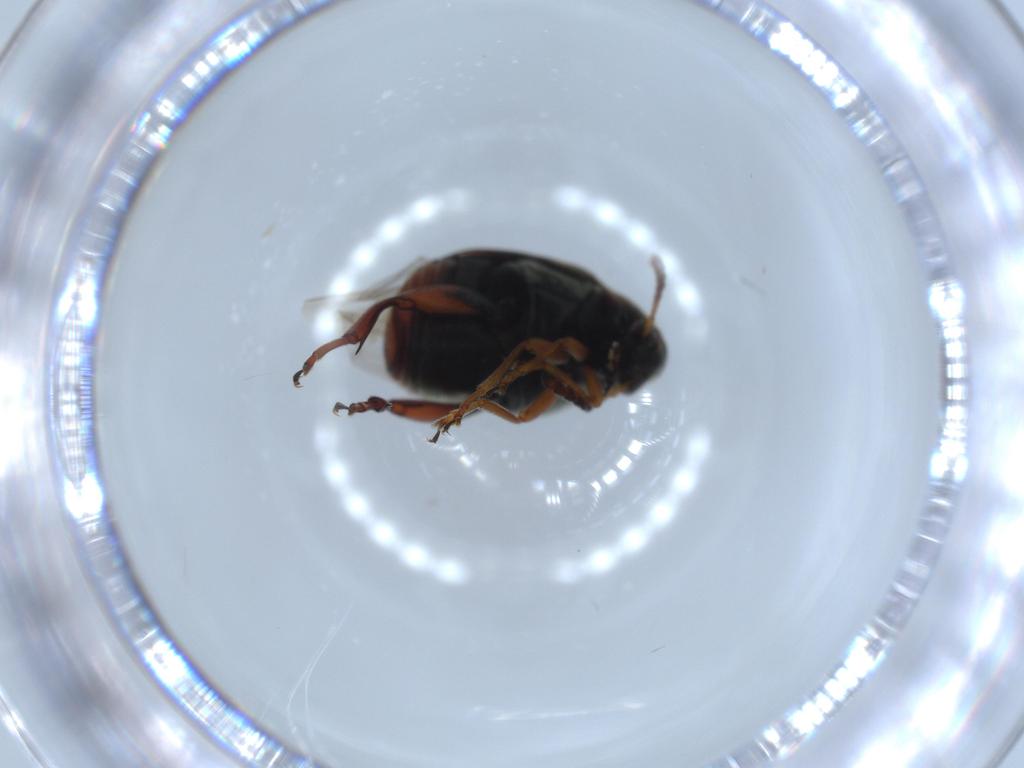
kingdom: Animalia
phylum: Arthropoda
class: Insecta
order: Coleoptera
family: Chrysomelidae
